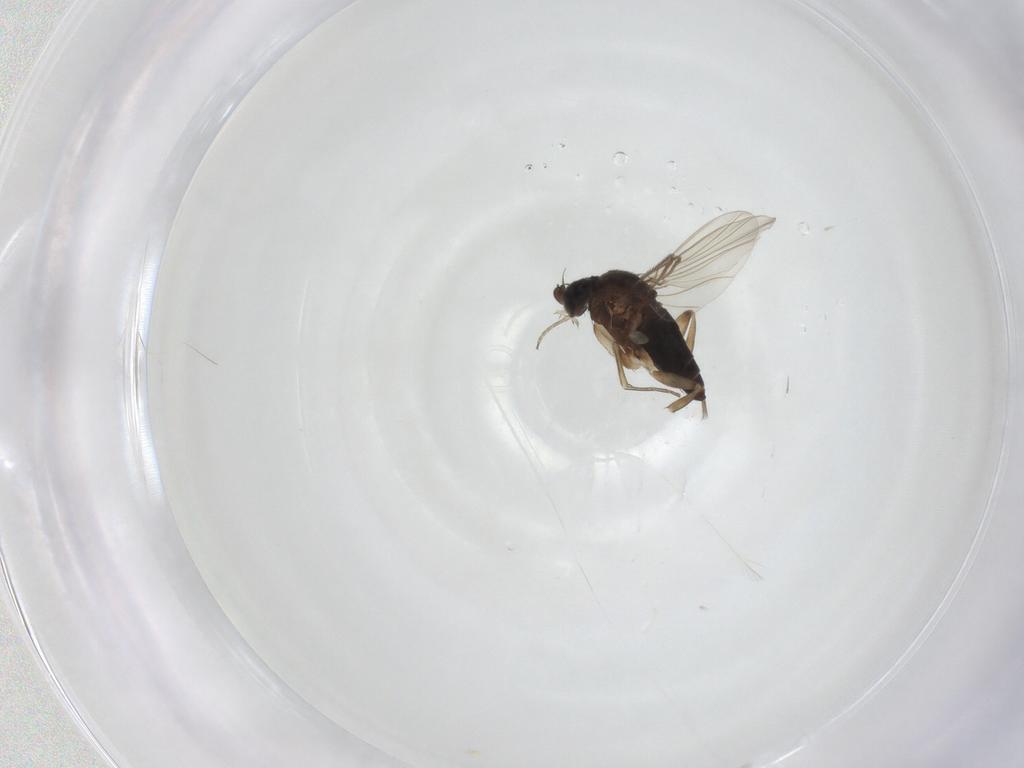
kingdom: Animalia
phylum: Arthropoda
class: Insecta
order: Diptera
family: Phoridae
